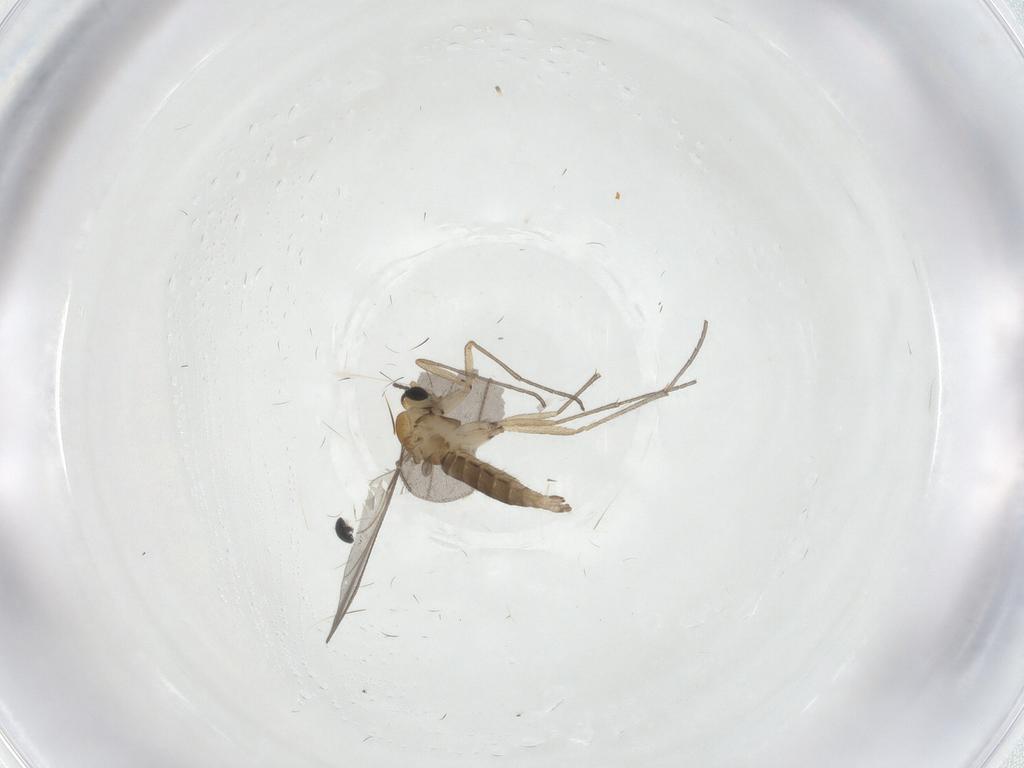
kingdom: Animalia
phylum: Arthropoda
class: Insecta
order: Diptera
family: Sciaridae
